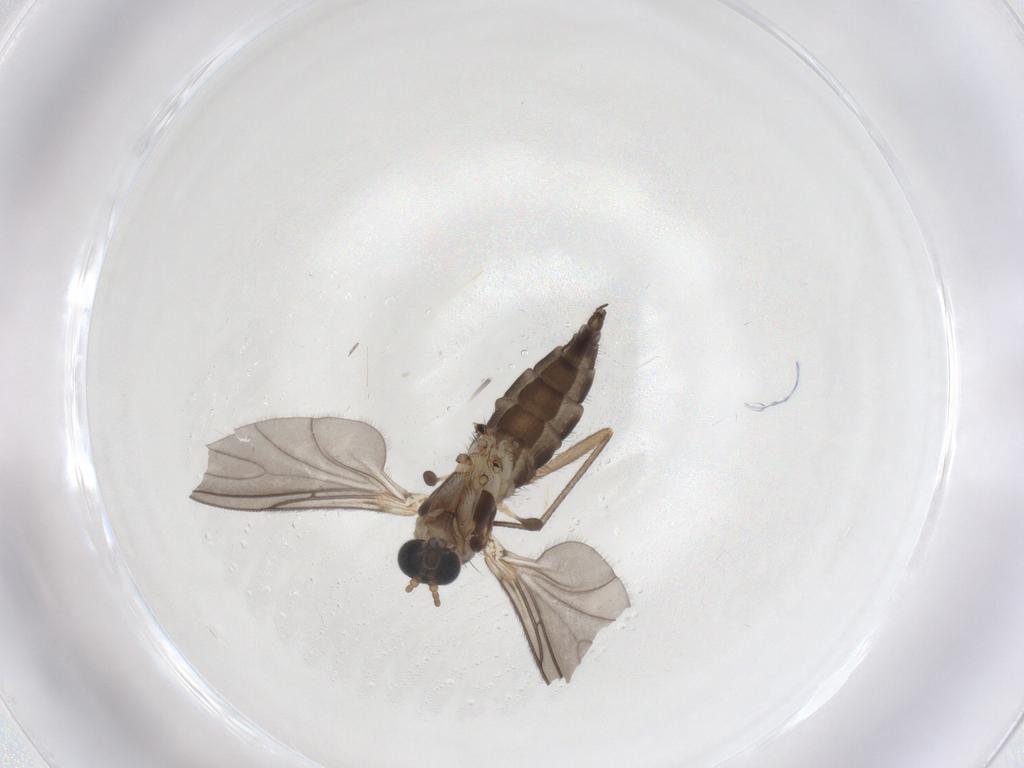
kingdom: Animalia
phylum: Arthropoda
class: Insecta
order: Diptera
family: Sciaridae
